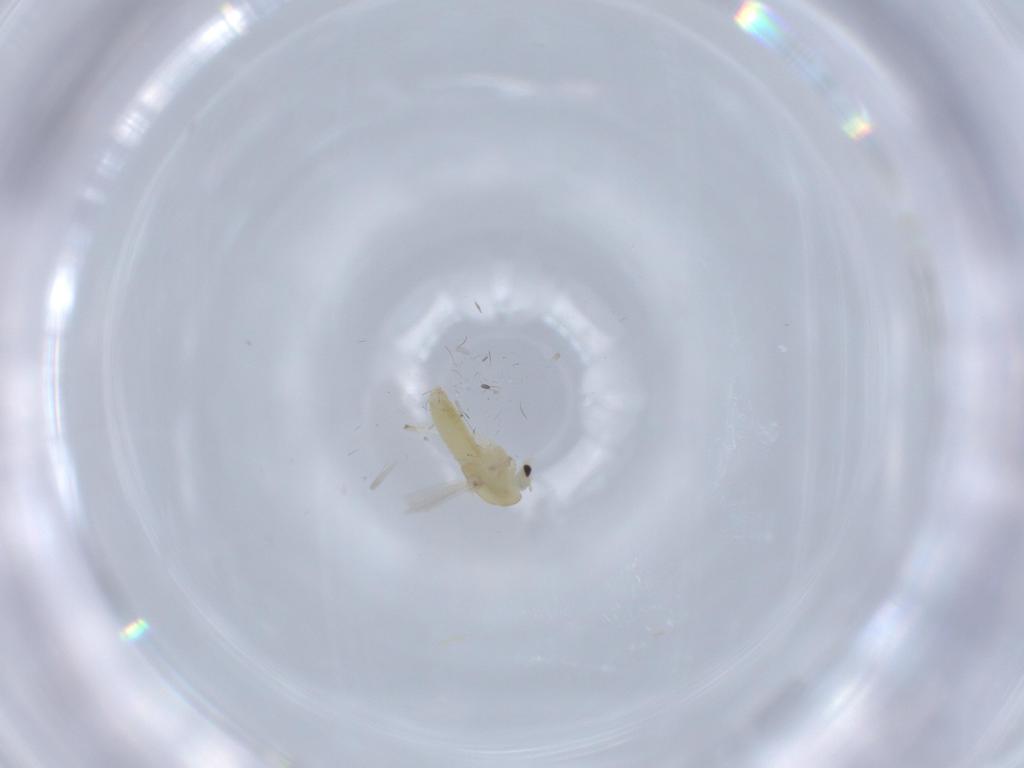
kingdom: Animalia
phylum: Arthropoda
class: Insecta
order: Diptera
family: Chironomidae
